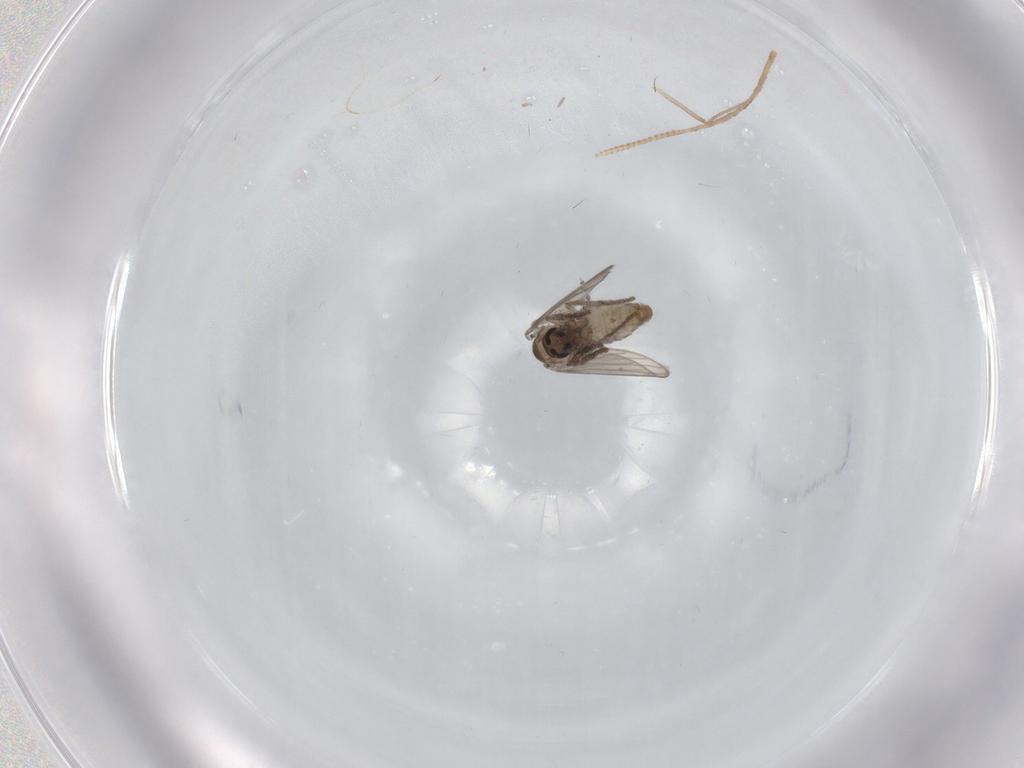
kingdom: Animalia
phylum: Arthropoda
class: Insecta
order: Diptera
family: Psychodidae
